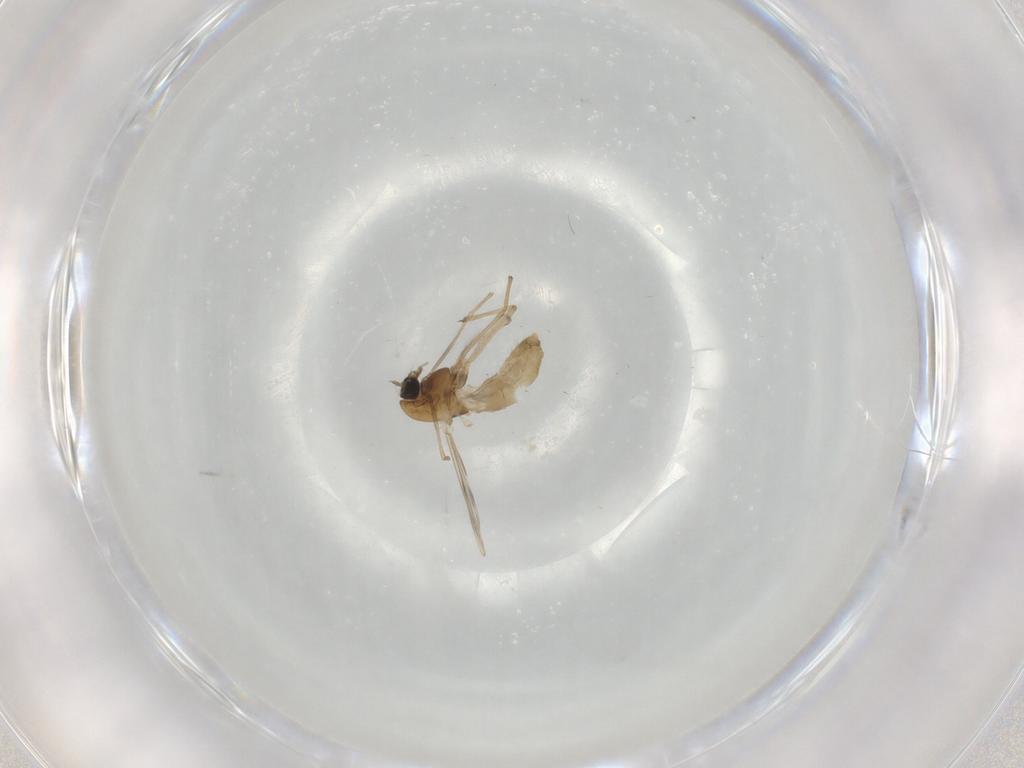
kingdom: Animalia
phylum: Arthropoda
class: Insecta
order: Diptera
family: Chironomidae
